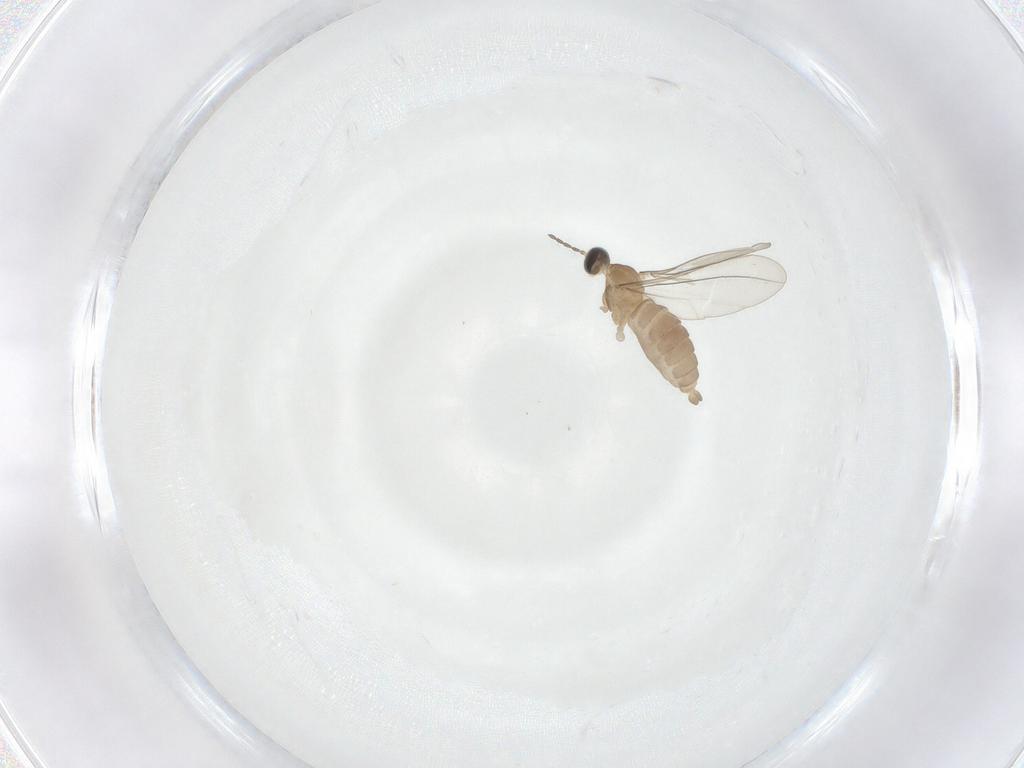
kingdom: Animalia
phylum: Arthropoda
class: Insecta
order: Diptera
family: Cecidomyiidae
